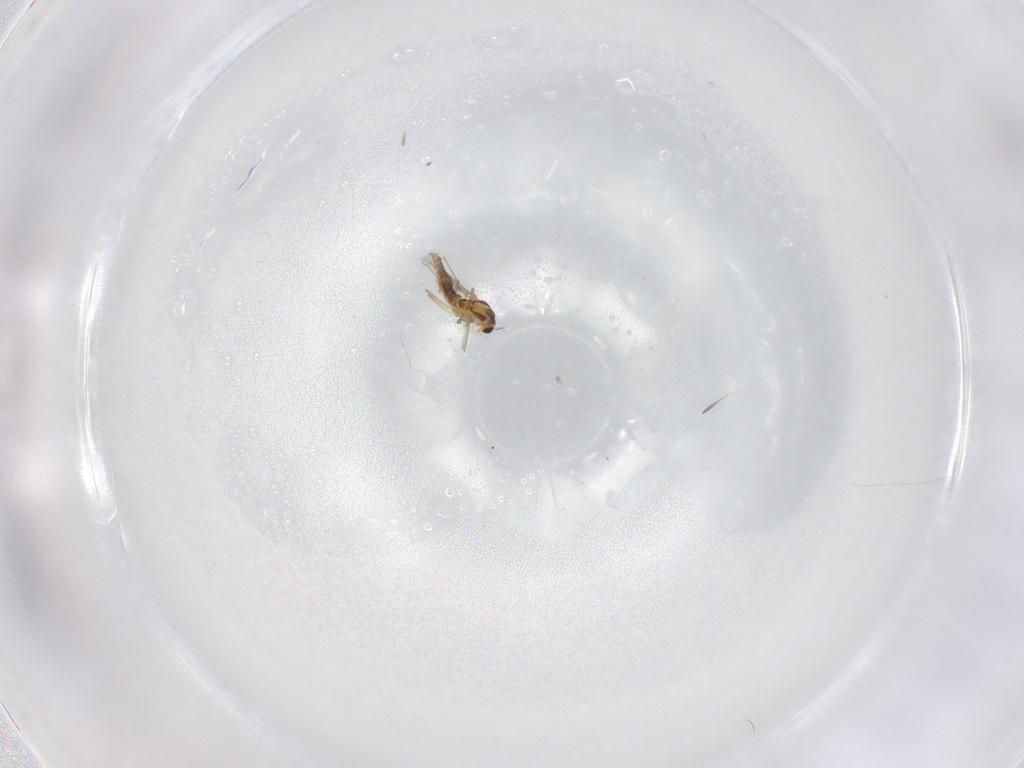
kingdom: Animalia
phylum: Arthropoda
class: Insecta
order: Diptera
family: Chironomidae
